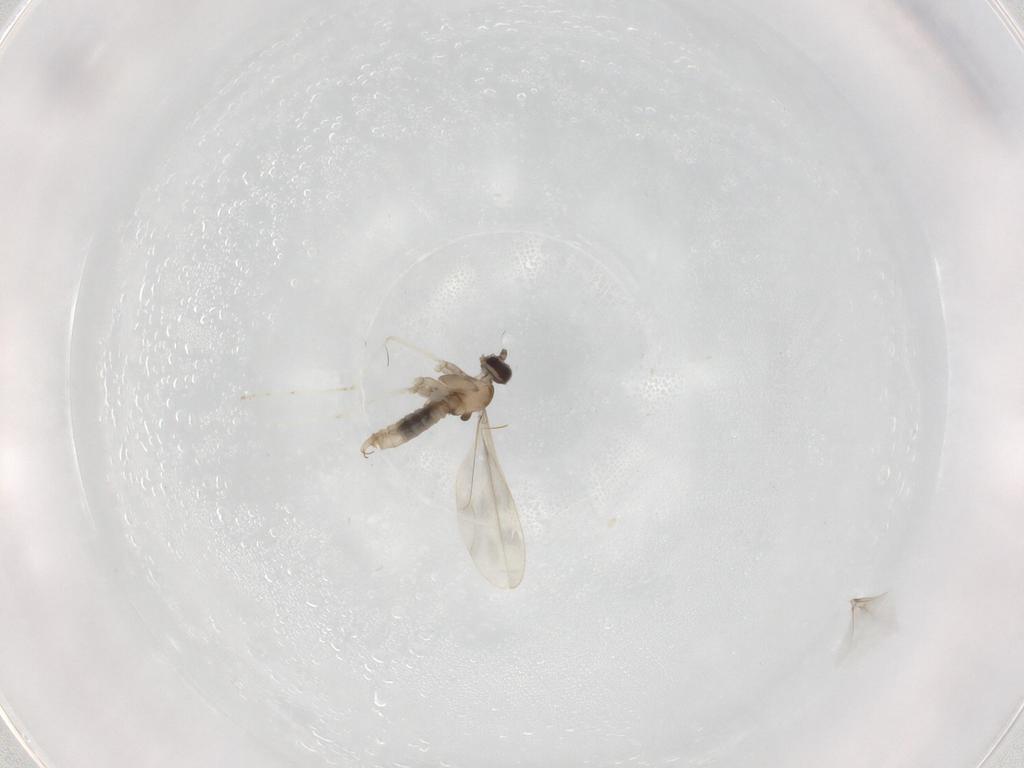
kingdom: Animalia
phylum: Arthropoda
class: Insecta
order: Diptera
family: Cecidomyiidae
